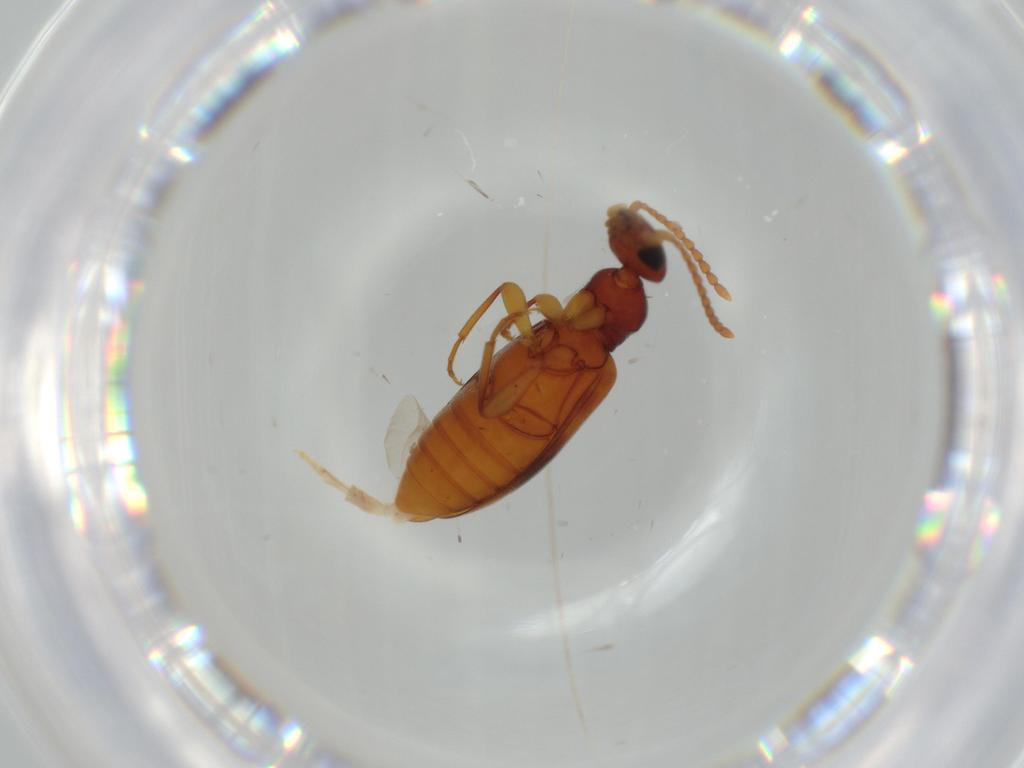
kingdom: Animalia
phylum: Arthropoda
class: Insecta
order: Coleoptera
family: Anthicidae
